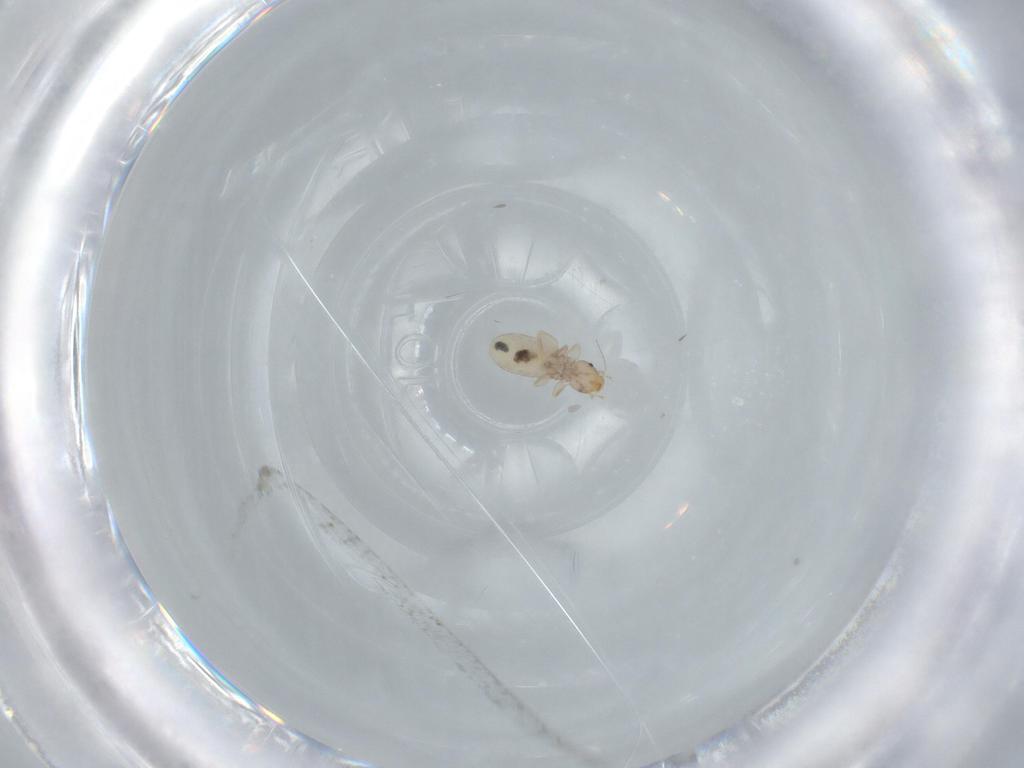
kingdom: Animalia
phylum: Arthropoda
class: Insecta
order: Psocodea
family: Liposcelididae
